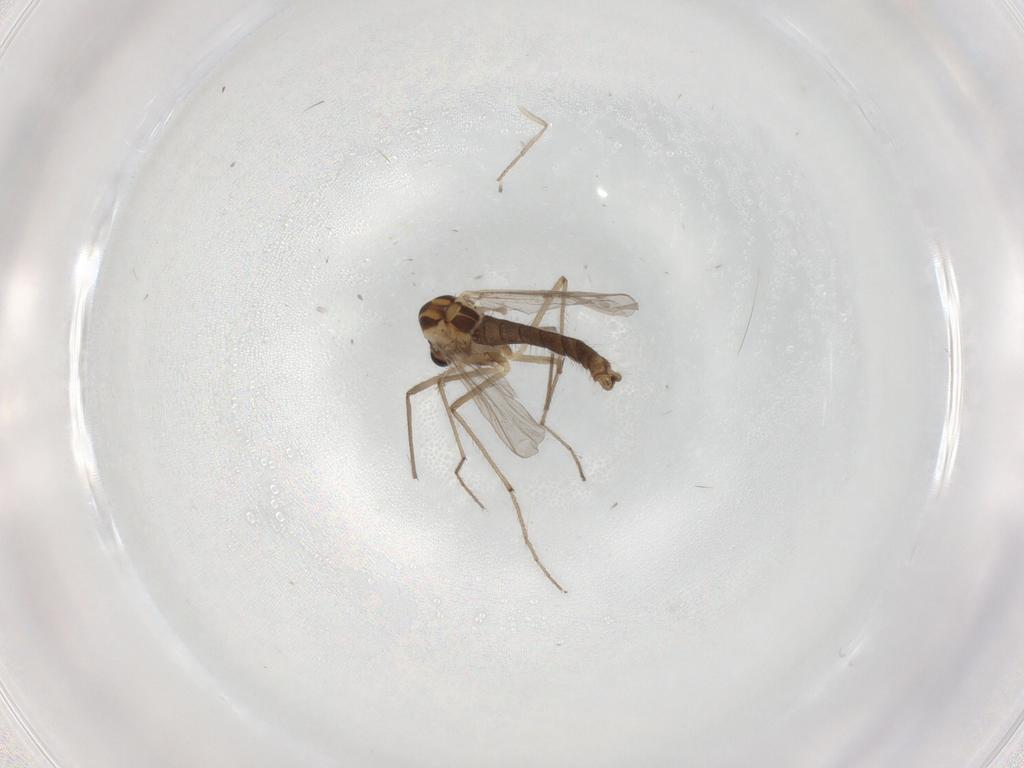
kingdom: Animalia
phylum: Arthropoda
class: Insecta
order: Diptera
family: Chironomidae
